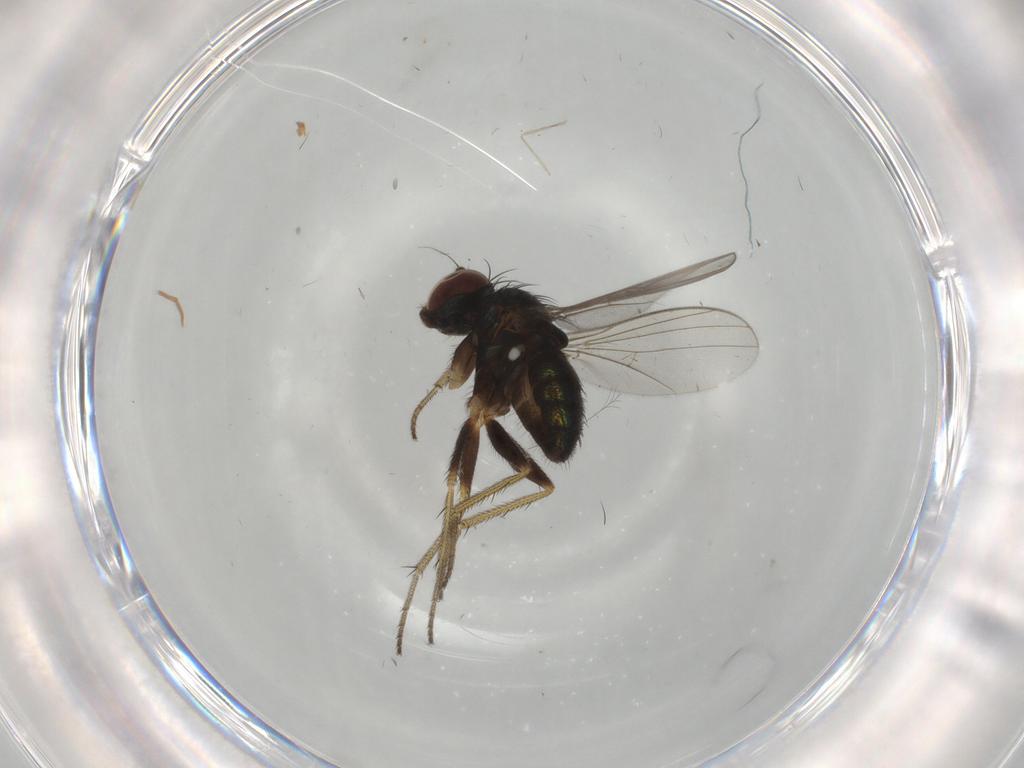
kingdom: Animalia
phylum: Arthropoda
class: Insecta
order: Diptera
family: Dolichopodidae
